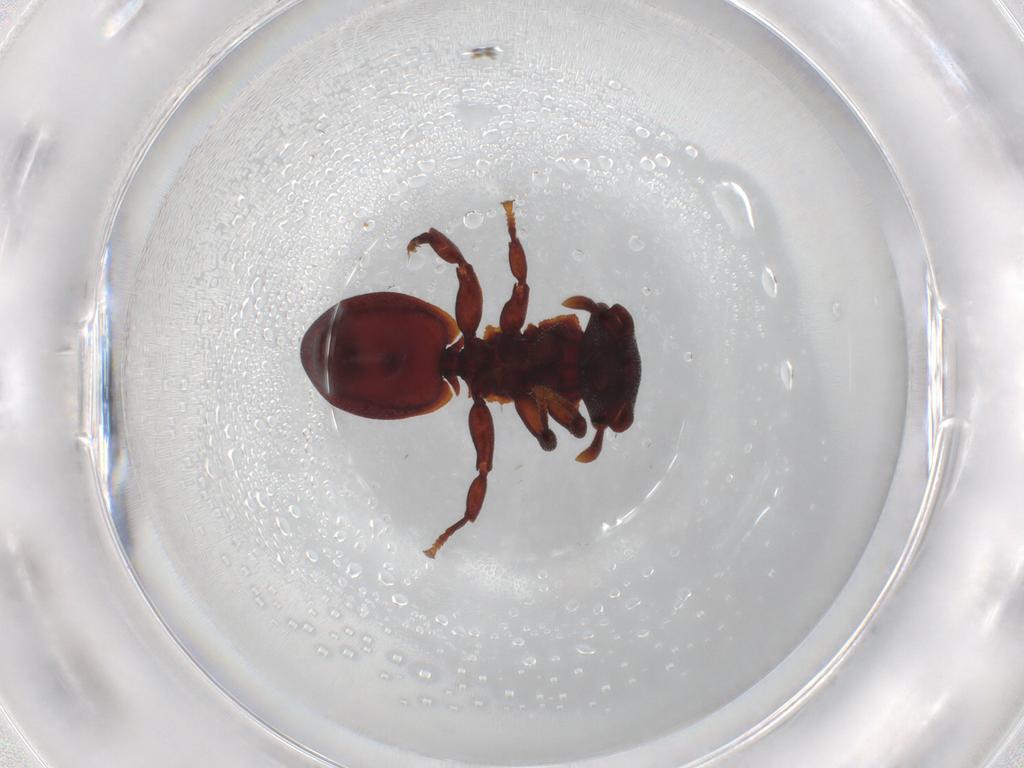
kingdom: Animalia
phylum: Arthropoda
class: Insecta
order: Hymenoptera
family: Formicidae
